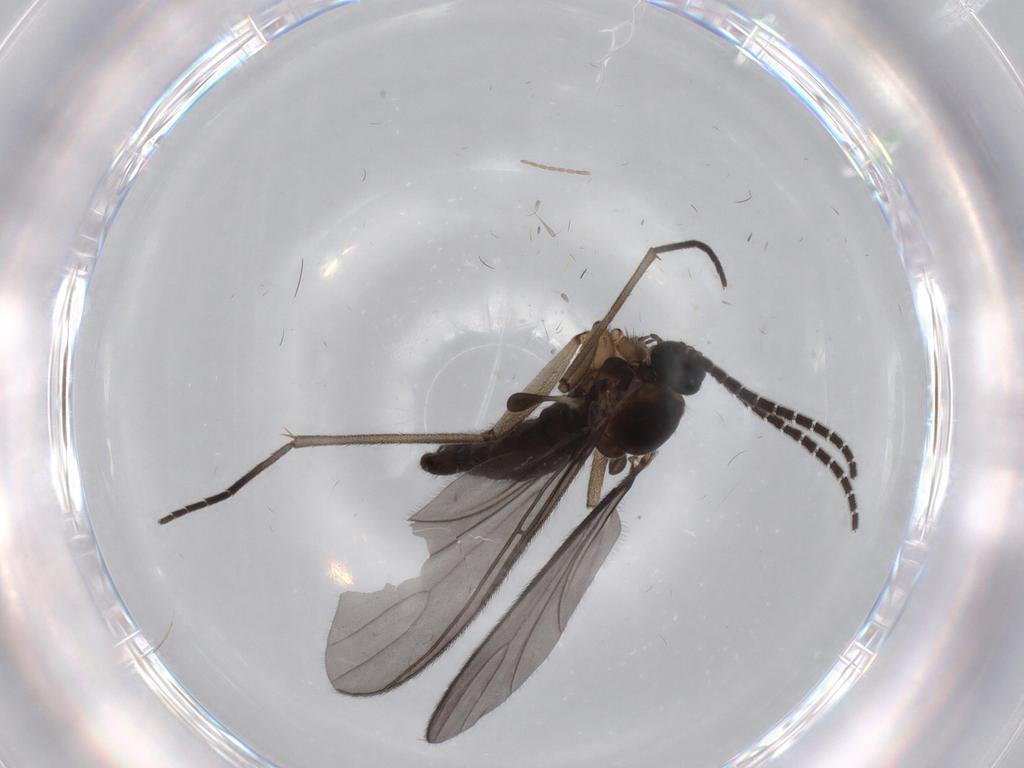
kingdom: Animalia
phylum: Arthropoda
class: Insecta
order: Diptera
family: Sciaridae
